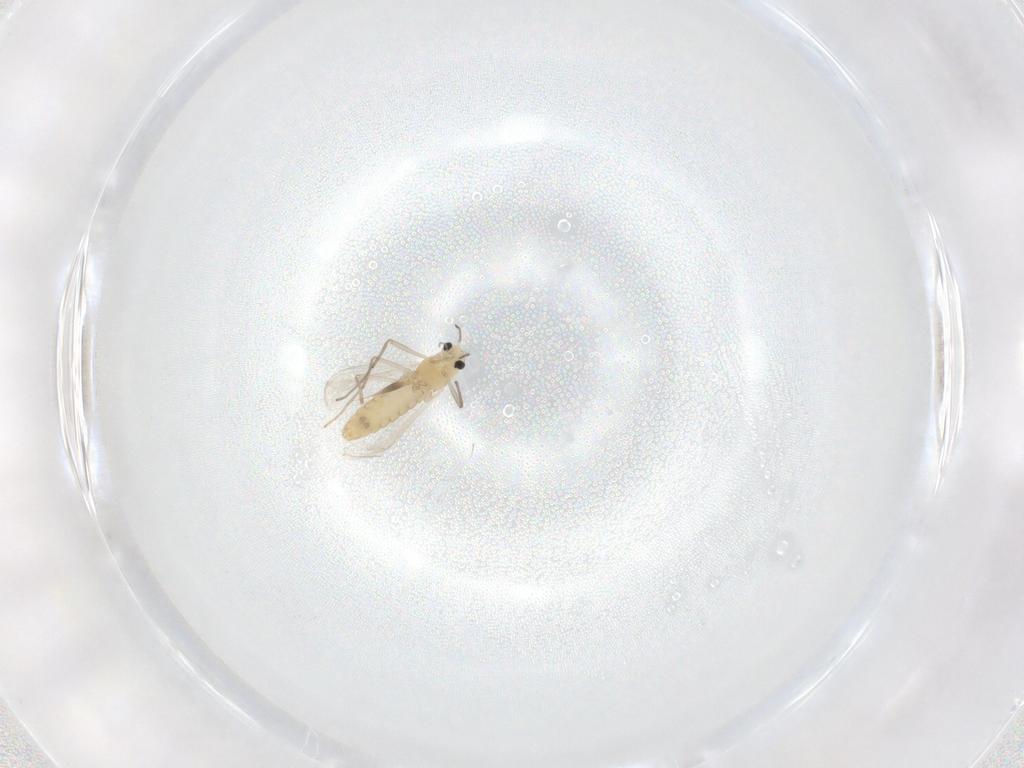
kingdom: Animalia
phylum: Arthropoda
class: Insecta
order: Diptera
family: Chironomidae
